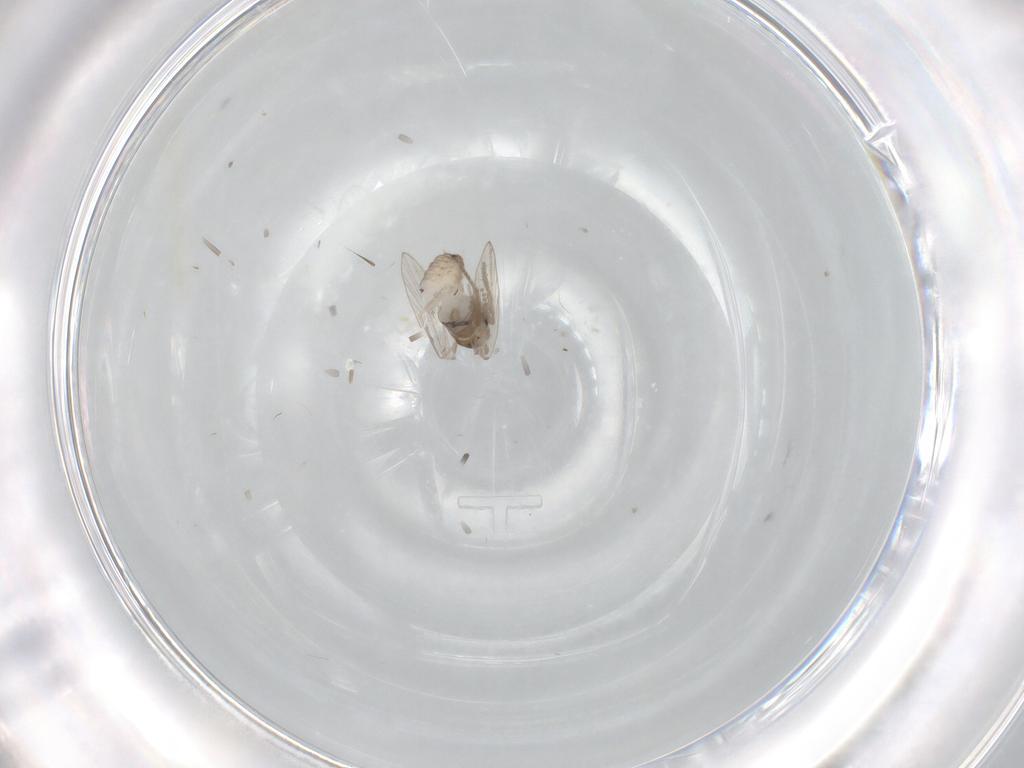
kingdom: Animalia
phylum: Arthropoda
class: Insecta
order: Diptera
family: Psychodidae
